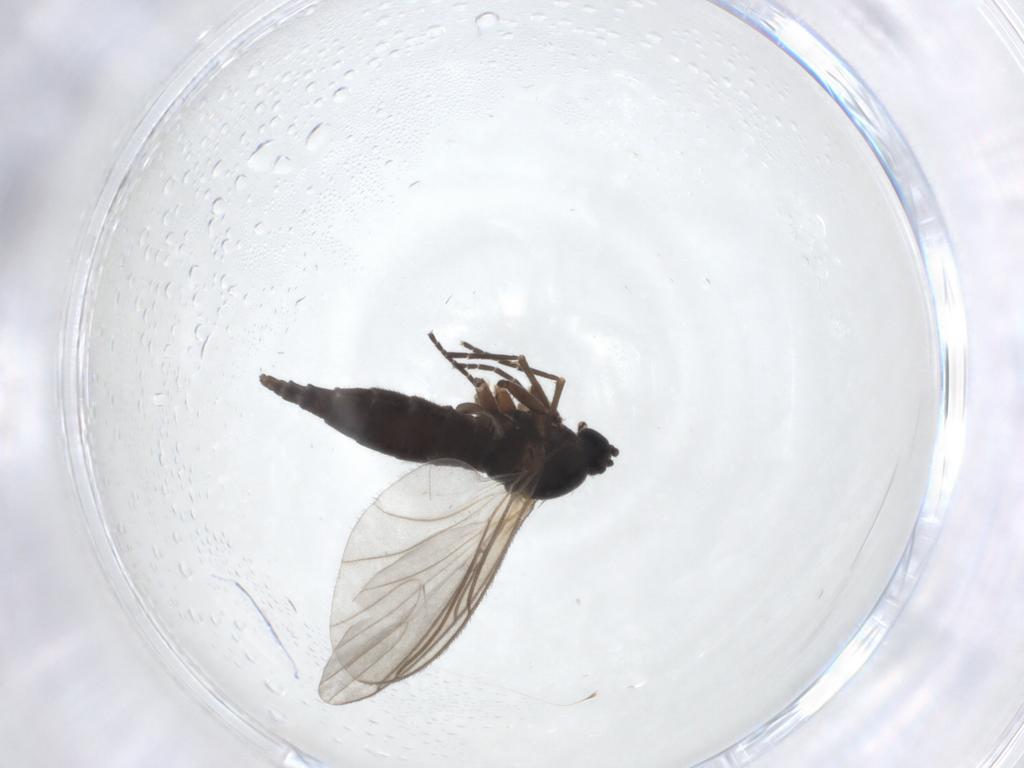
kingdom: Animalia
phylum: Arthropoda
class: Insecta
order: Diptera
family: Sciaridae
